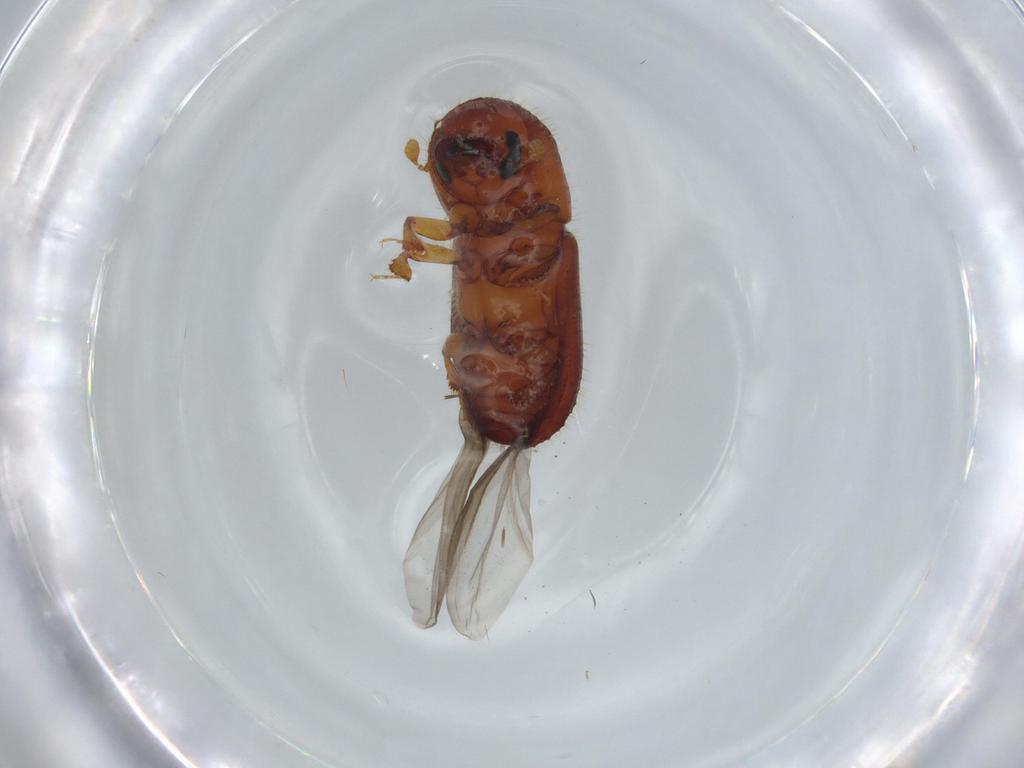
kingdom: Animalia
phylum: Arthropoda
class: Insecta
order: Coleoptera
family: Curculionidae
